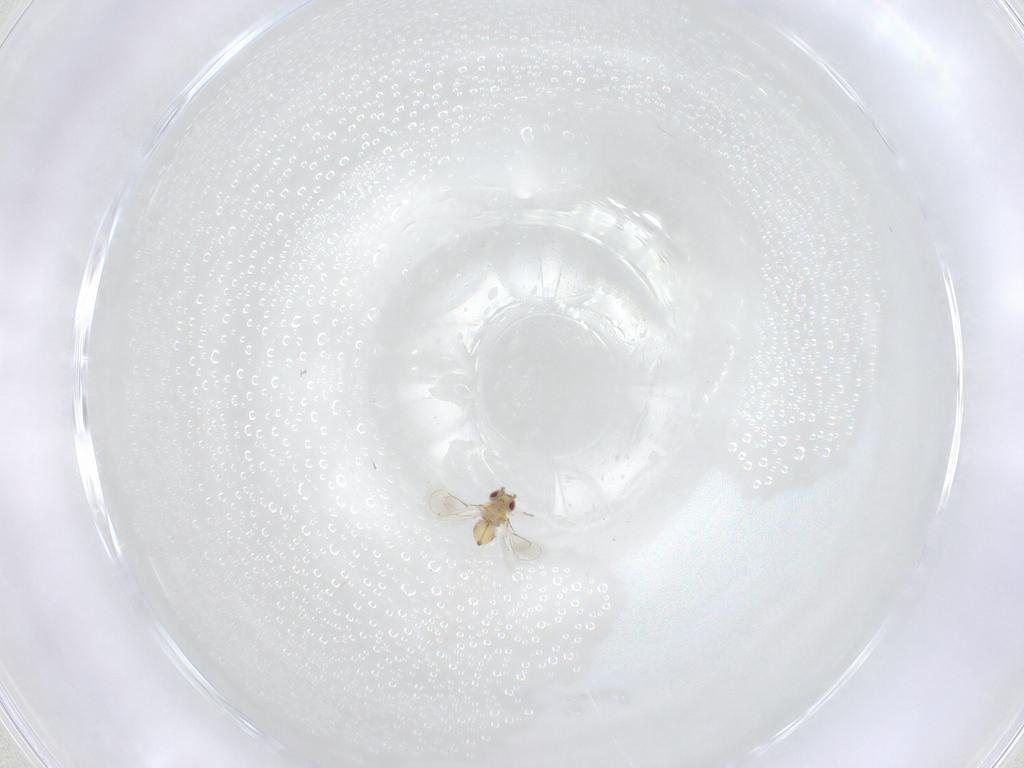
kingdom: Animalia
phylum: Arthropoda
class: Insecta
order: Hymenoptera
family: Eulophidae
